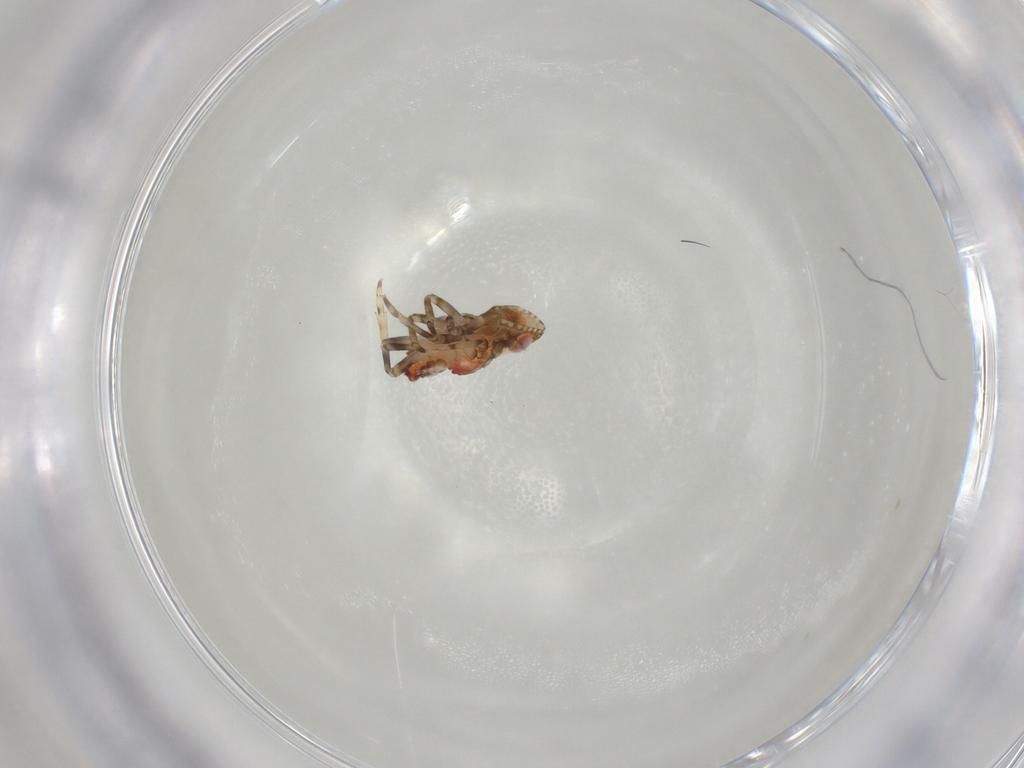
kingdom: Animalia
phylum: Arthropoda
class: Insecta
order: Hemiptera
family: Tropiduchidae
